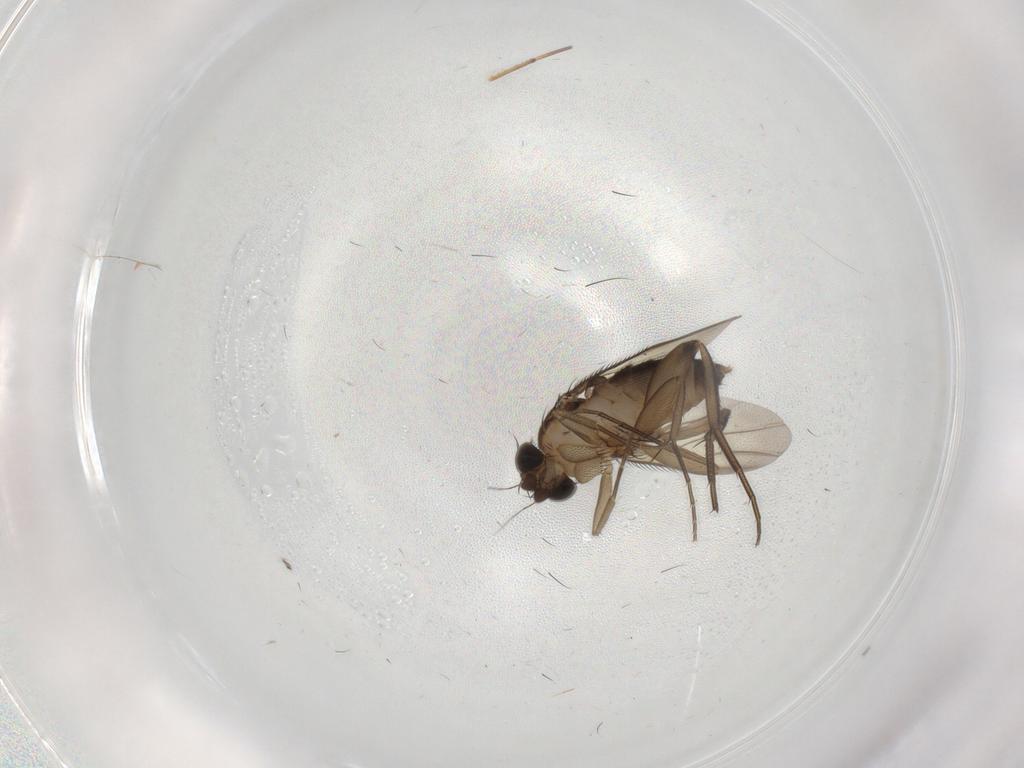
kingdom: Animalia
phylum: Arthropoda
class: Insecta
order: Diptera
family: Phoridae
